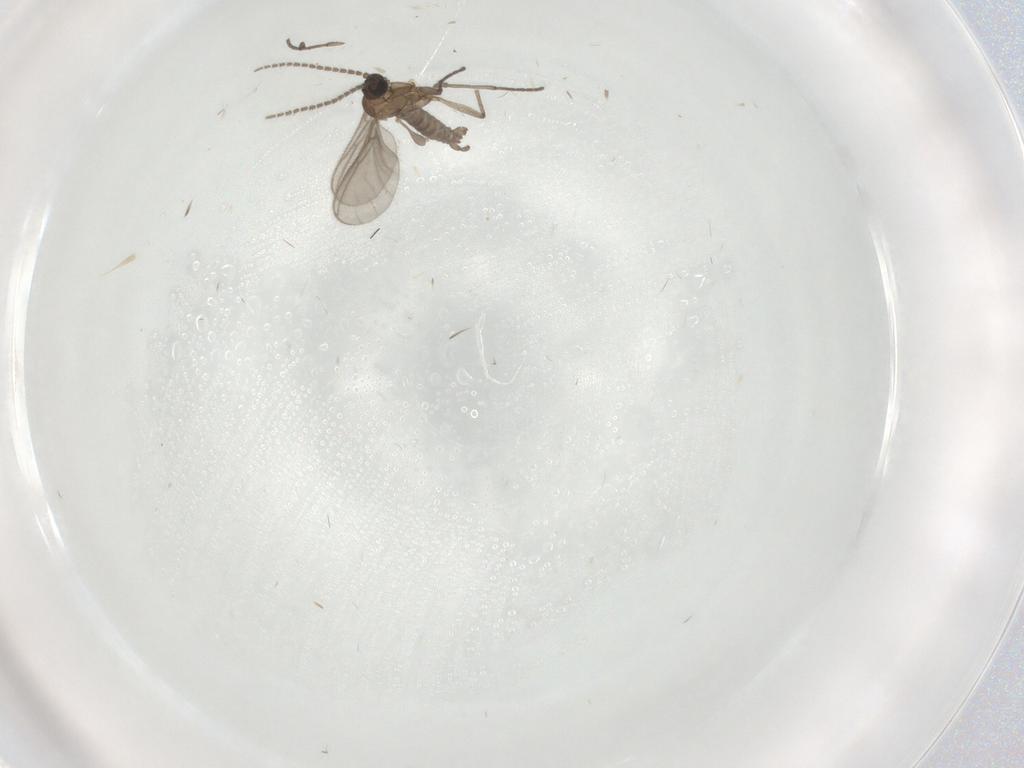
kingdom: Animalia
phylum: Arthropoda
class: Insecta
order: Diptera
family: Sciaridae
